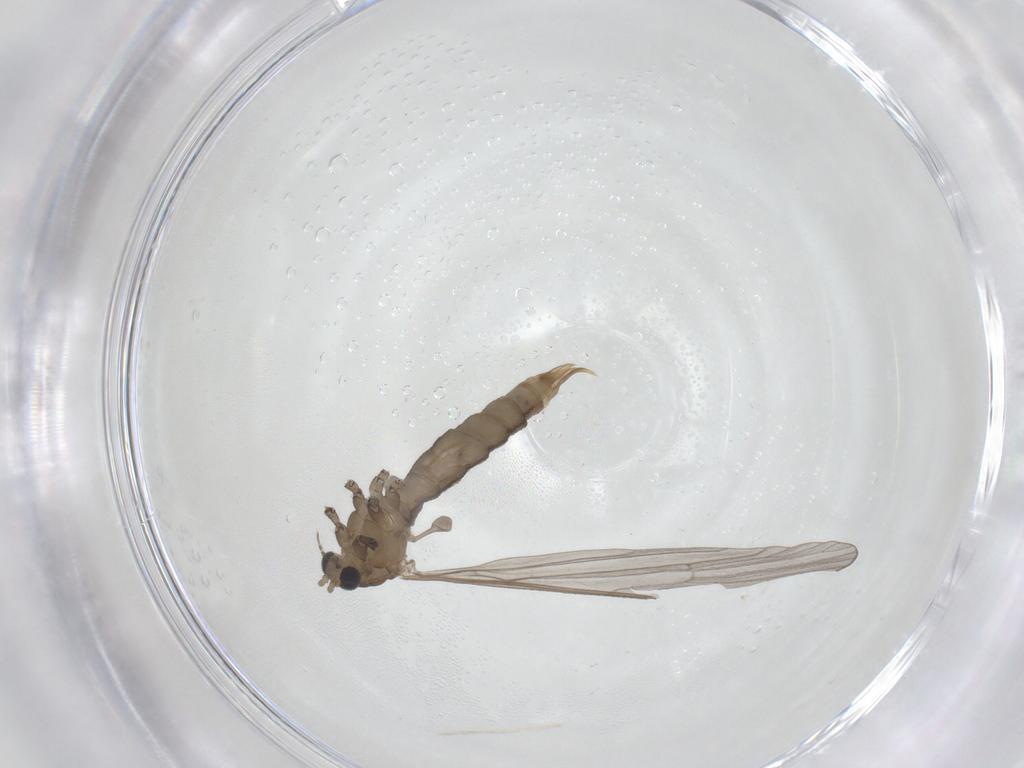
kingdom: Animalia
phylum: Arthropoda
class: Insecta
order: Diptera
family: Limoniidae
